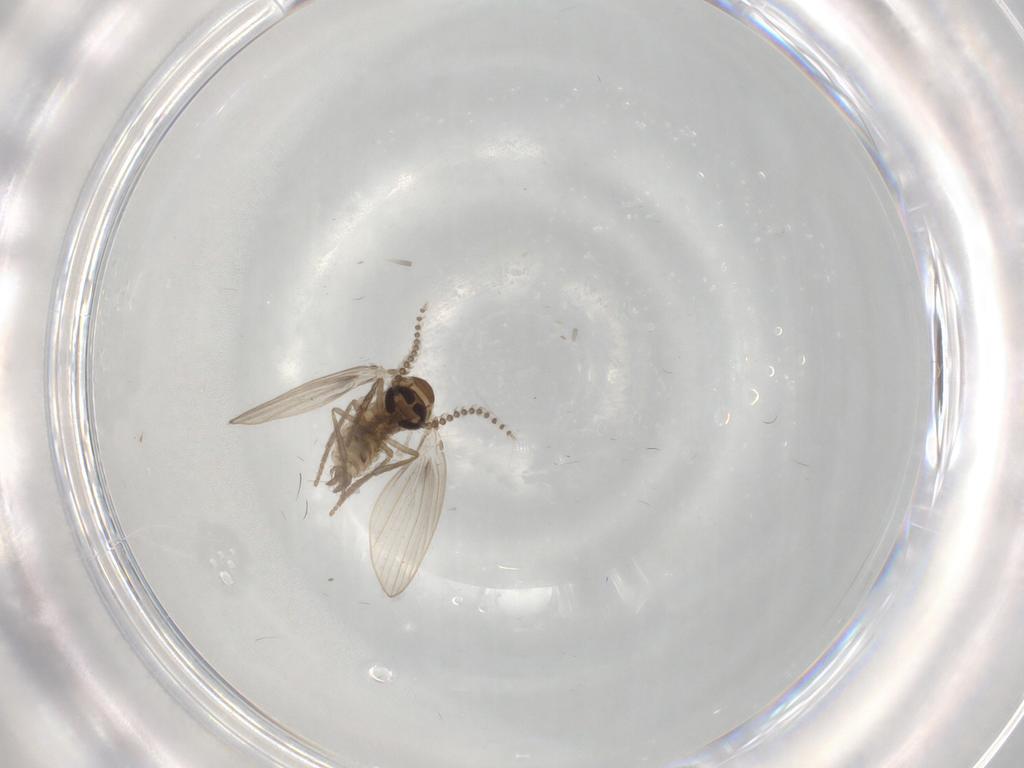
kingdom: Animalia
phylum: Arthropoda
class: Insecta
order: Diptera
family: Psychodidae
